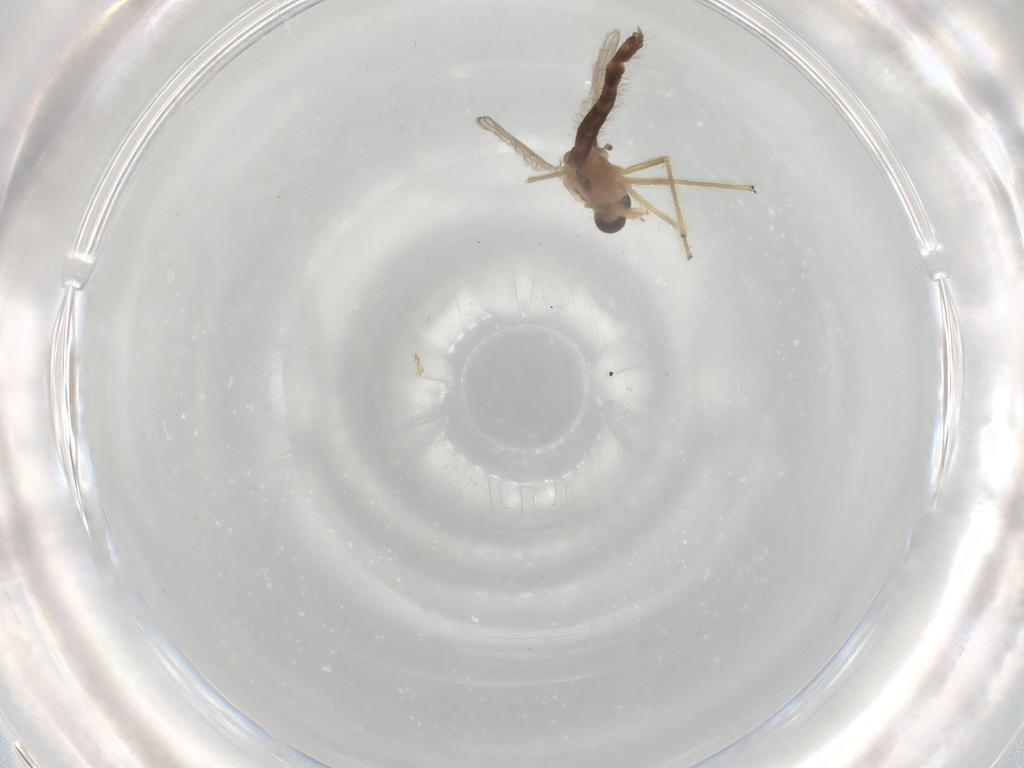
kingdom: Animalia
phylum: Arthropoda
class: Insecta
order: Diptera
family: Chironomidae
